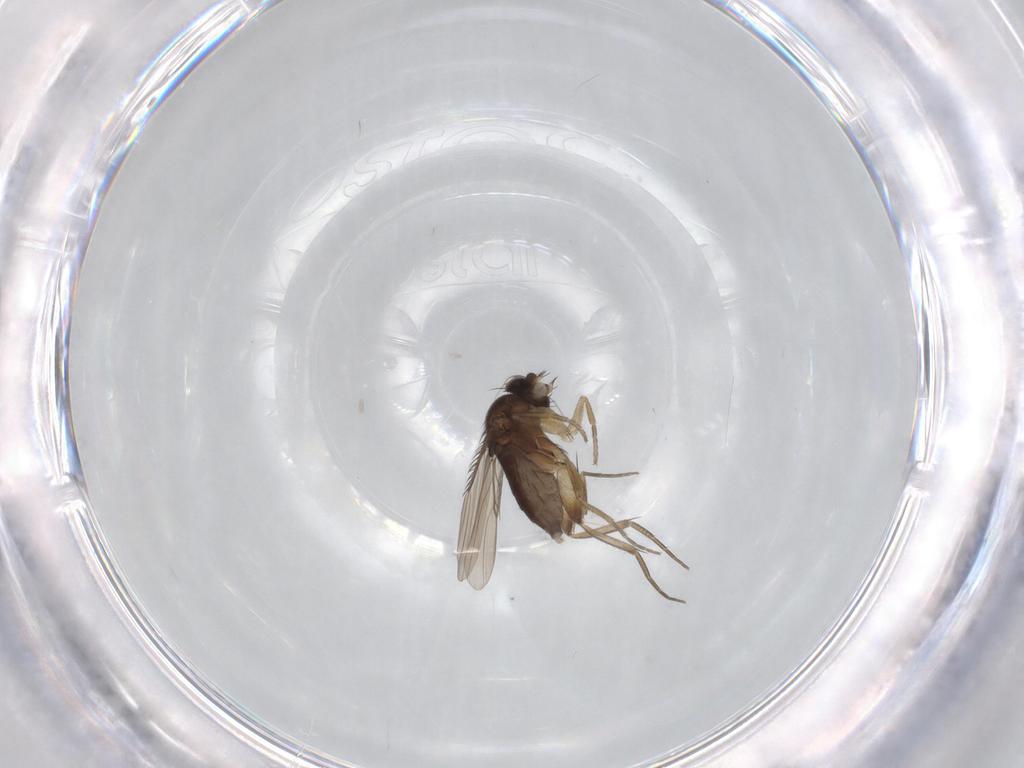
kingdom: Animalia
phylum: Arthropoda
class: Insecta
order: Diptera
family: Phoridae
